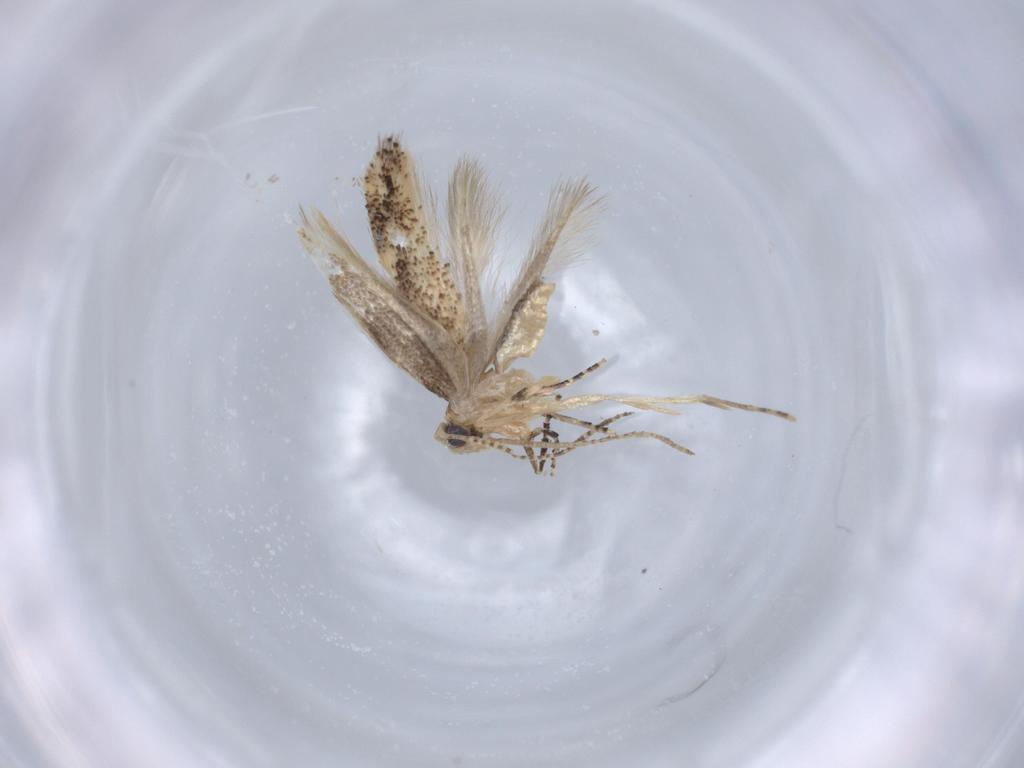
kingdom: Animalia
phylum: Arthropoda
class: Insecta
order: Lepidoptera
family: Bucculatricidae
